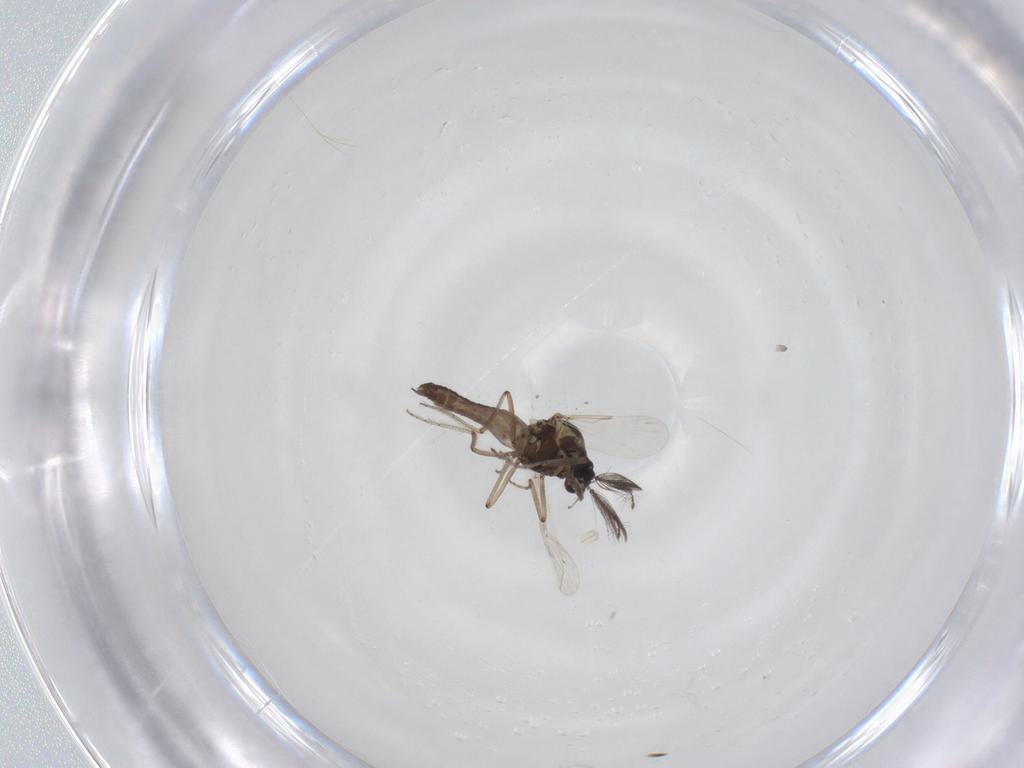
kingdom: Animalia
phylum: Arthropoda
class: Insecta
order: Diptera
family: Ceratopogonidae
